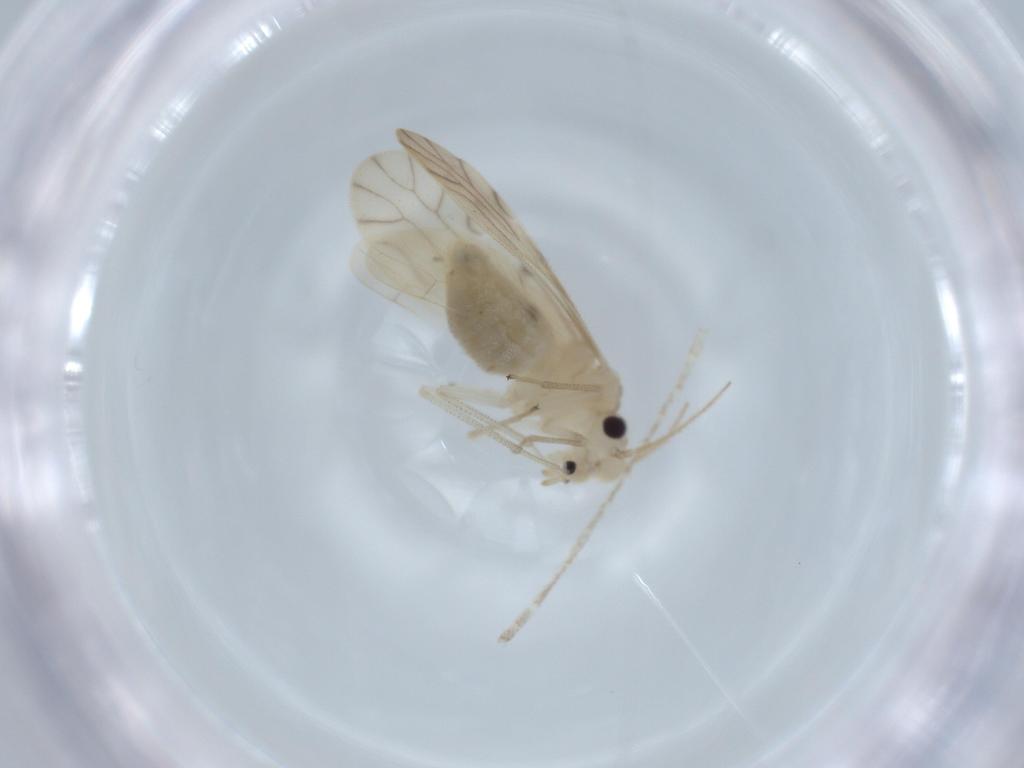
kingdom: Animalia
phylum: Arthropoda
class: Insecta
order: Psocodea
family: Caeciliusidae
